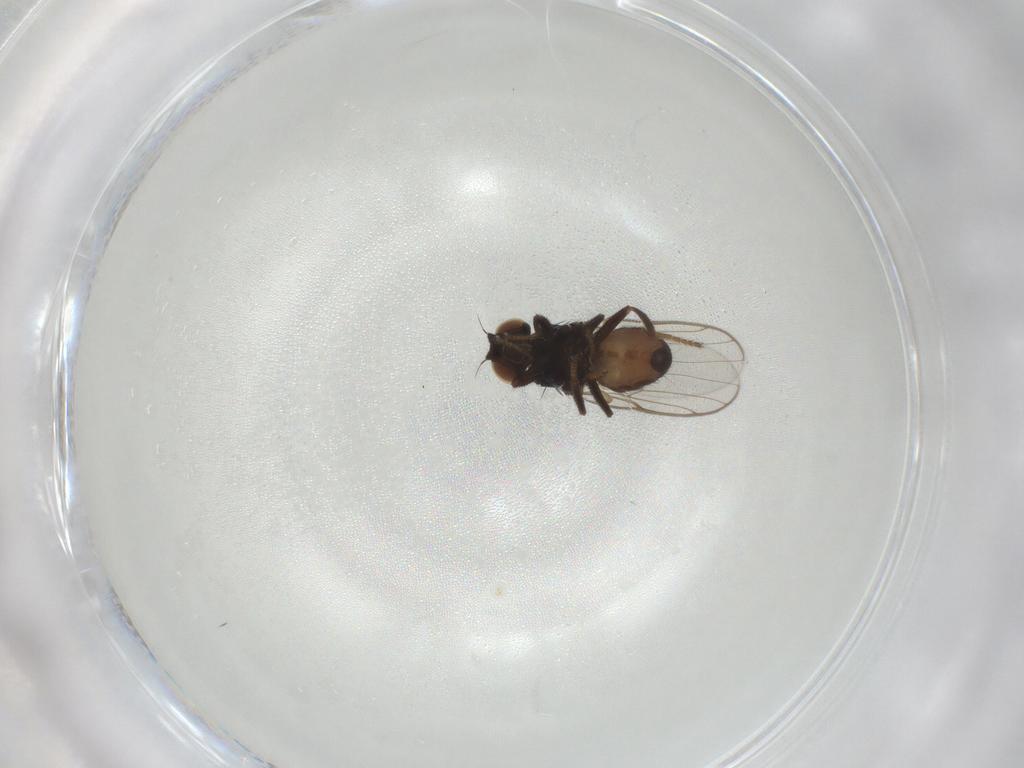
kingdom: Animalia
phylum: Arthropoda
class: Insecta
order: Diptera
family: Chloropidae
